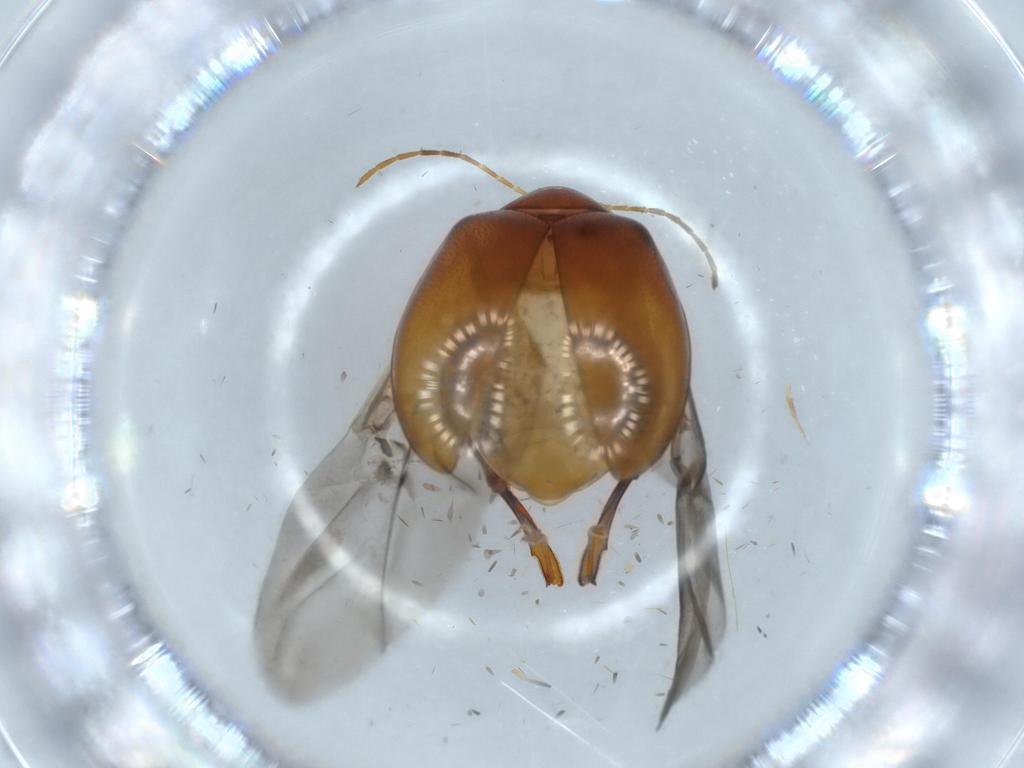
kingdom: Animalia
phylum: Arthropoda
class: Insecta
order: Coleoptera
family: Chrysomelidae
